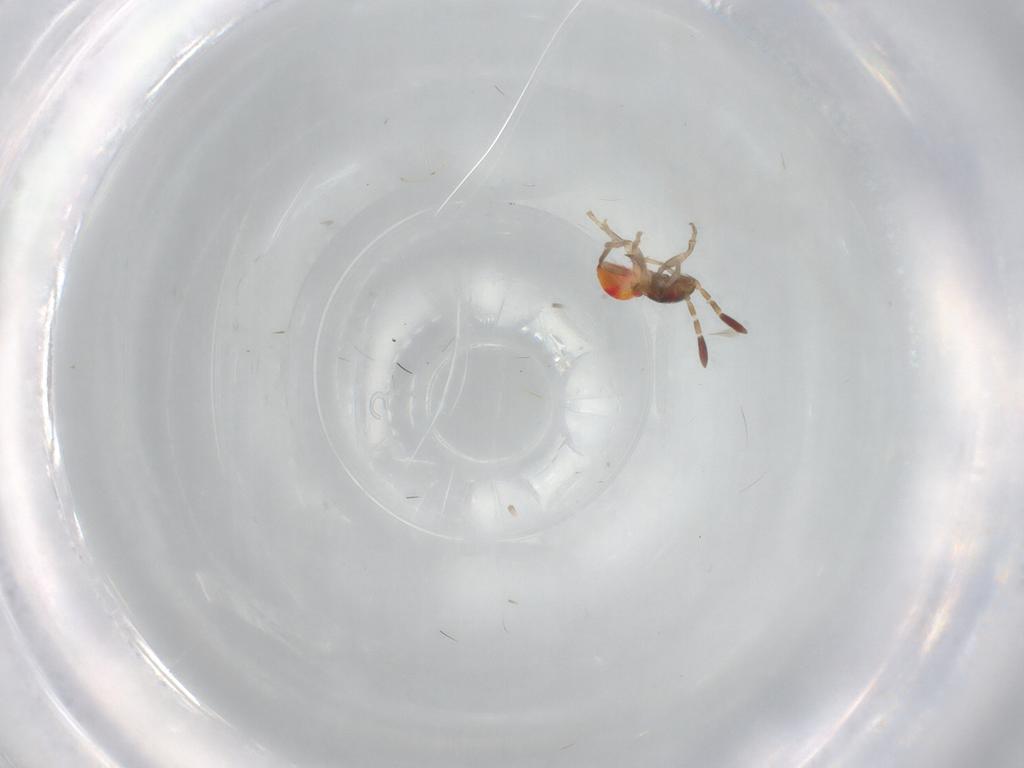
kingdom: Animalia
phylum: Arthropoda
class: Insecta
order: Hemiptera
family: Rhyparochromidae
